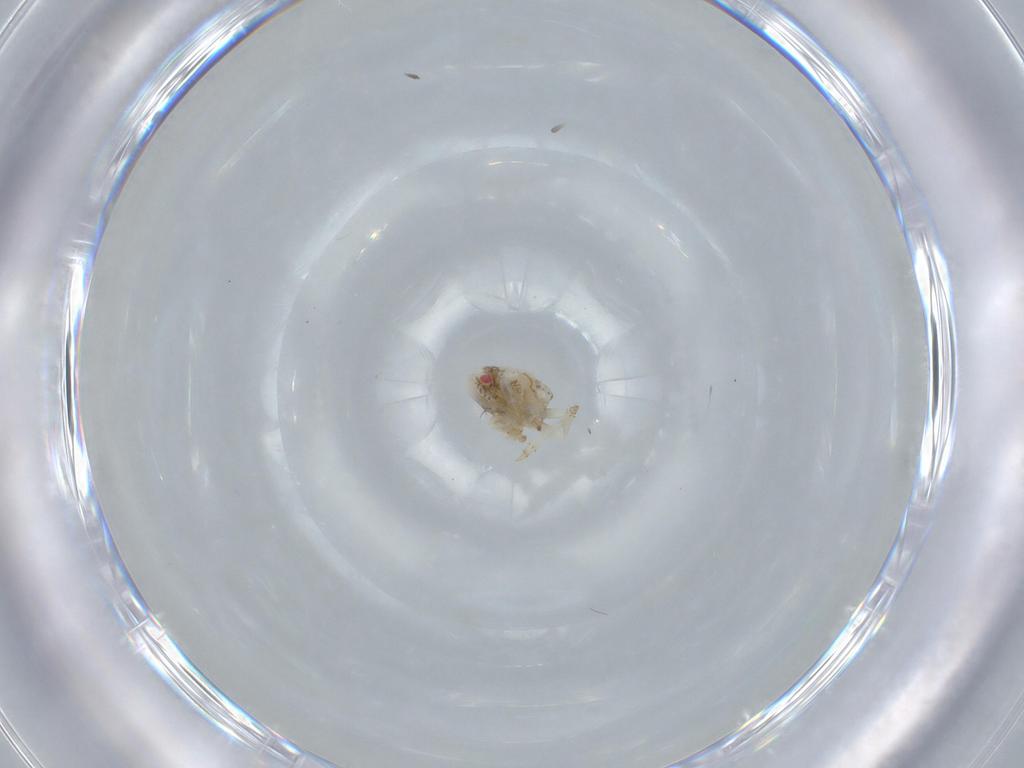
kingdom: Animalia
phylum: Arthropoda
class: Insecta
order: Hemiptera
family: Acanaloniidae
